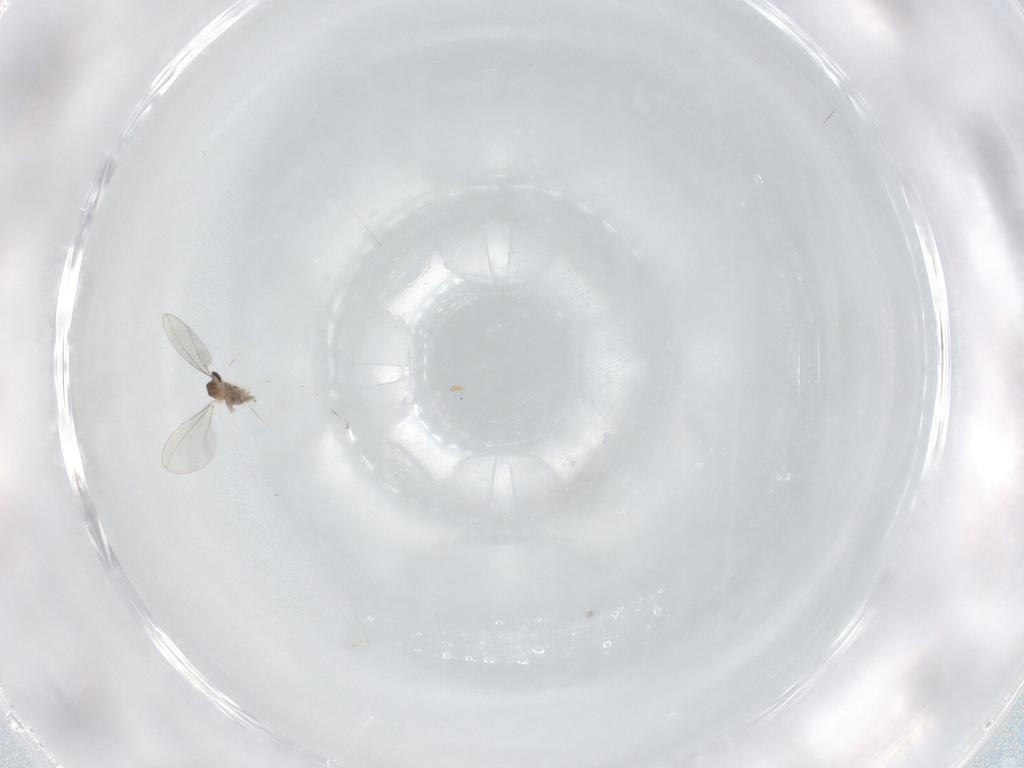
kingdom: Animalia
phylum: Arthropoda
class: Insecta
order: Diptera
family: Cecidomyiidae
